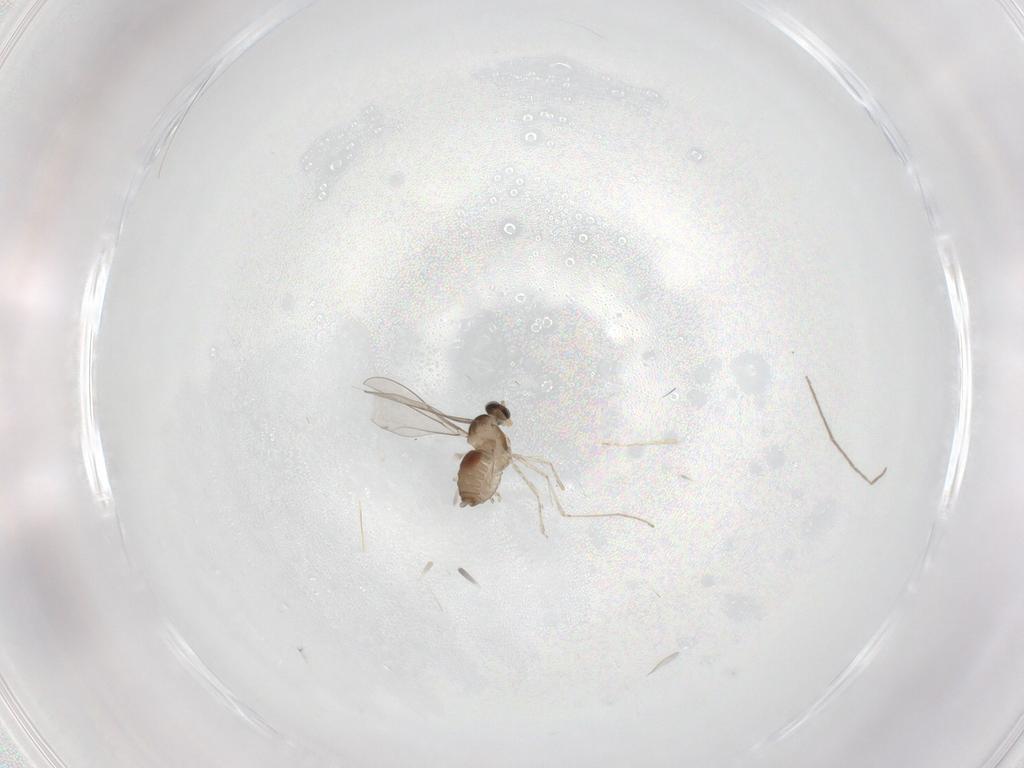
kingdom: Animalia
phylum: Arthropoda
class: Insecta
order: Diptera
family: Cecidomyiidae
